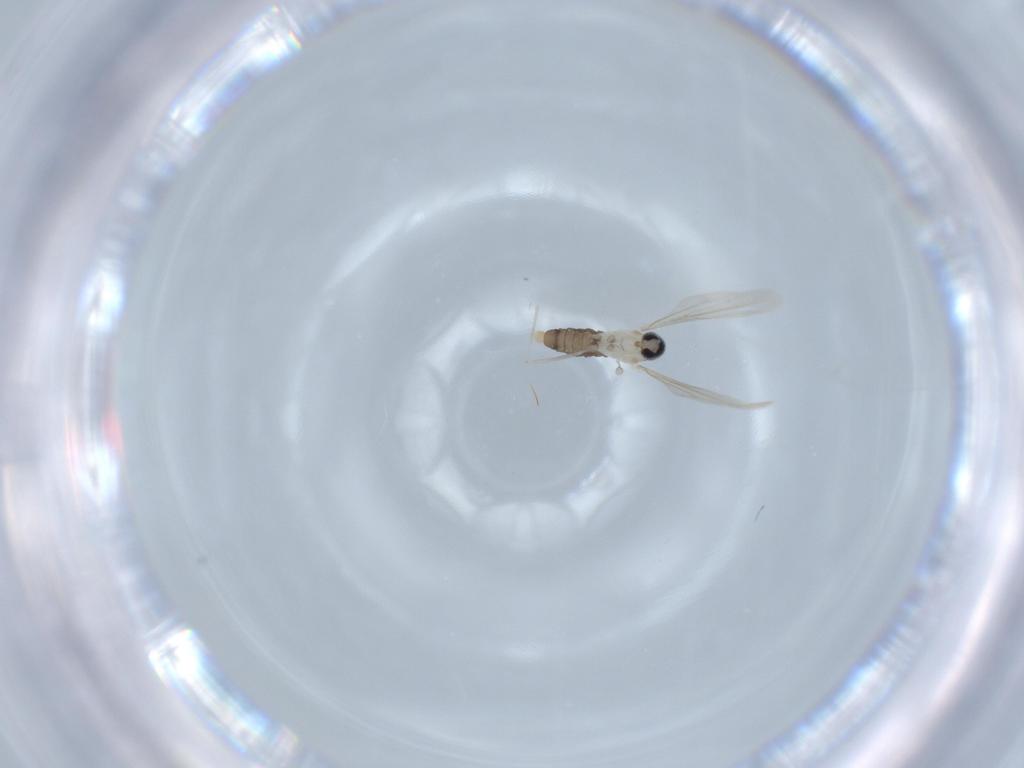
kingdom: Animalia
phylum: Arthropoda
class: Insecta
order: Diptera
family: Cecidomyiidae
